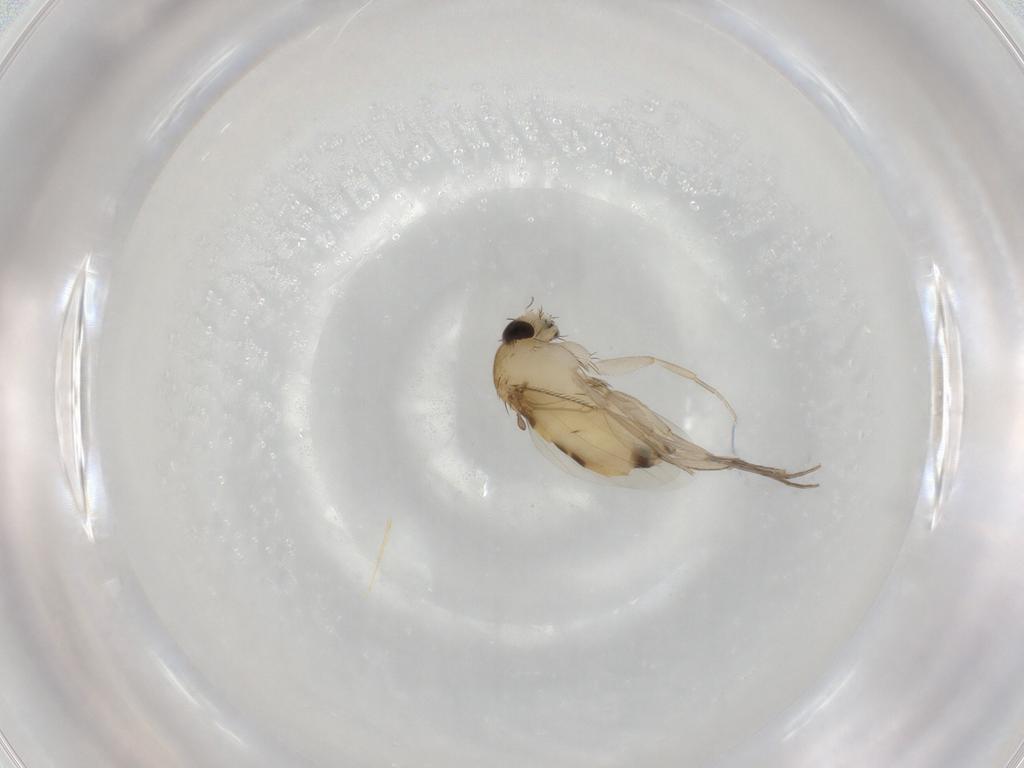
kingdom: Animalia
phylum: Arthropoda
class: Insecta
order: Diptera
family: Phoridae
